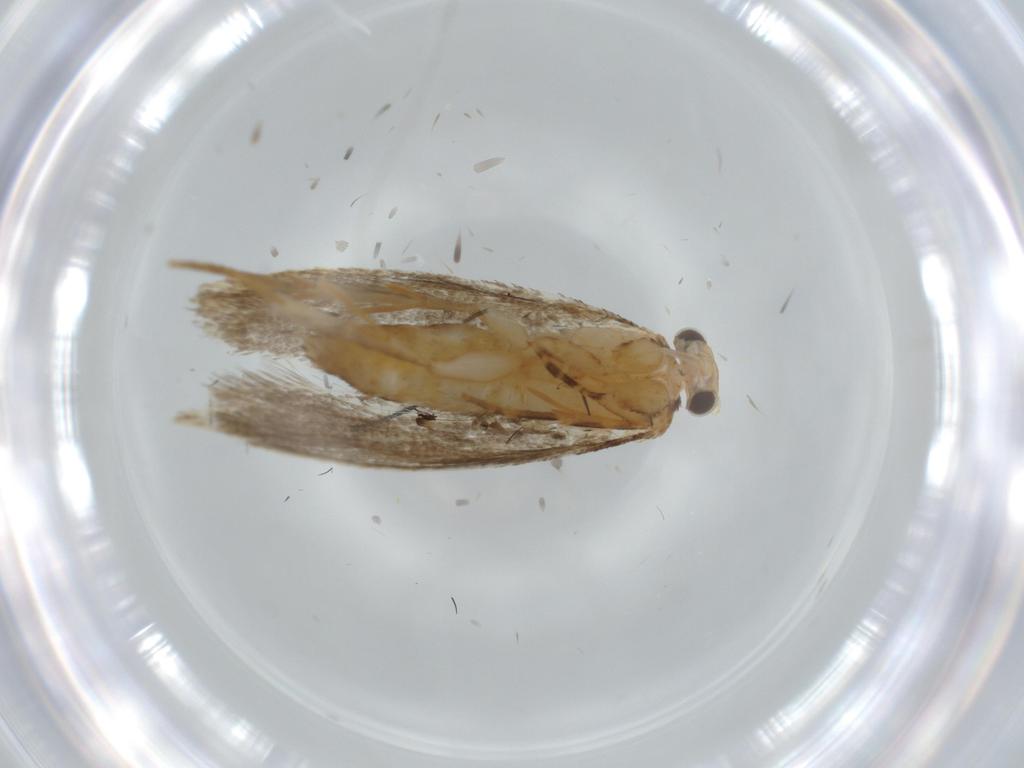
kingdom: Animalia
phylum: Arthropoda
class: Insecta
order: Lepidoptera
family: Tineidae
